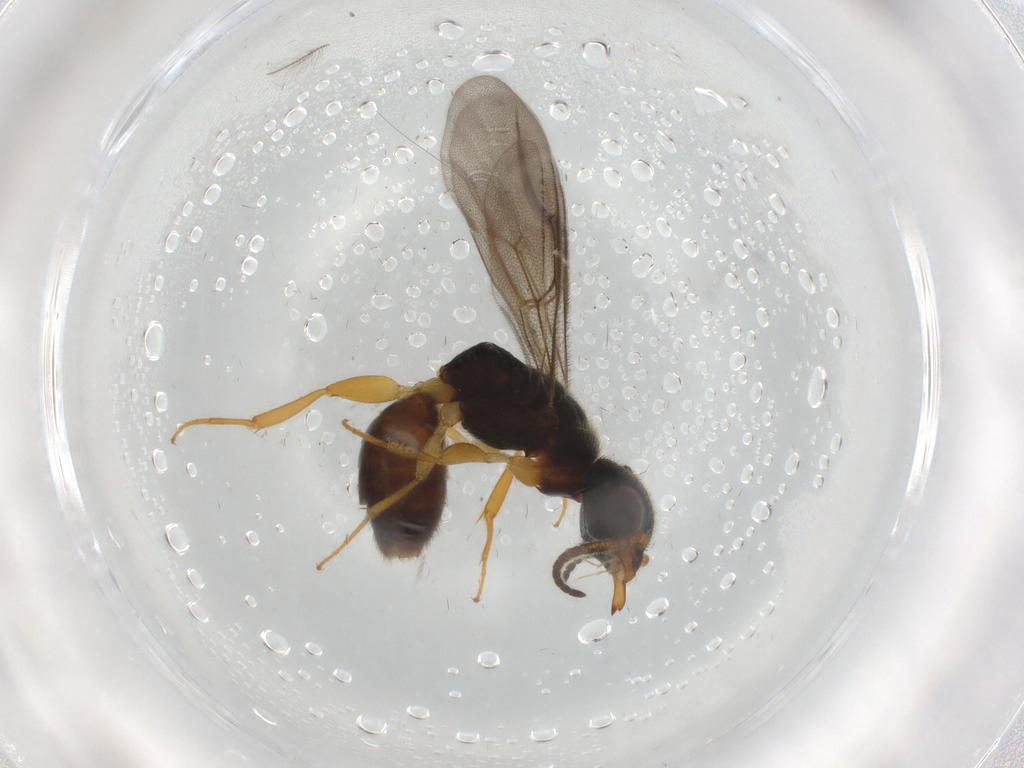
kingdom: Animalia
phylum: Arthropoda
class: Insecta
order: Hymenoptera
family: Bethylidae
